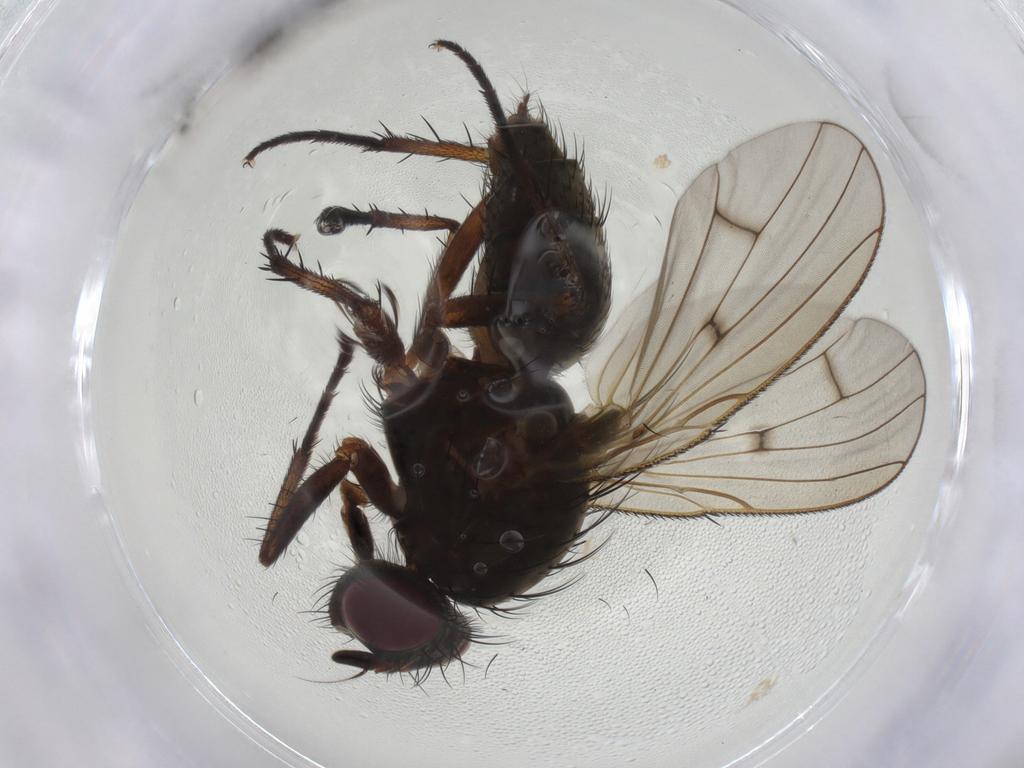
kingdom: Animalia
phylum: Arthropoda
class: Insecta
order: Diptera
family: Anthomyiidae
